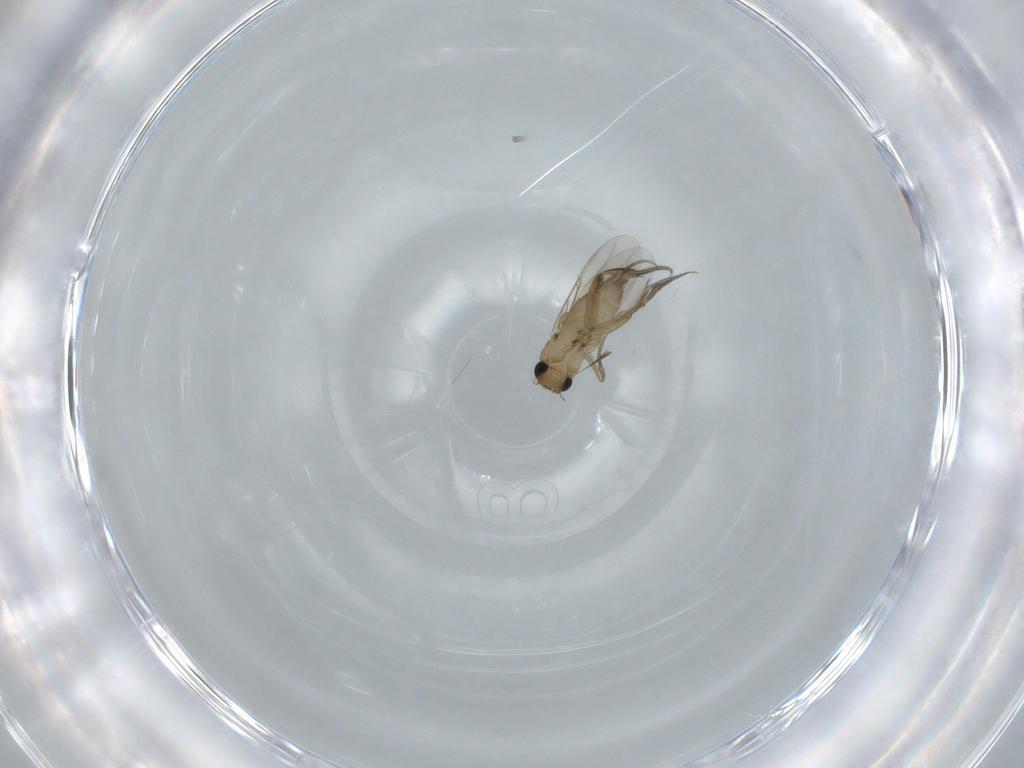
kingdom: Animalia
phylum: Arthropoda
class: Insecta
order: Diptera
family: Phoridae
